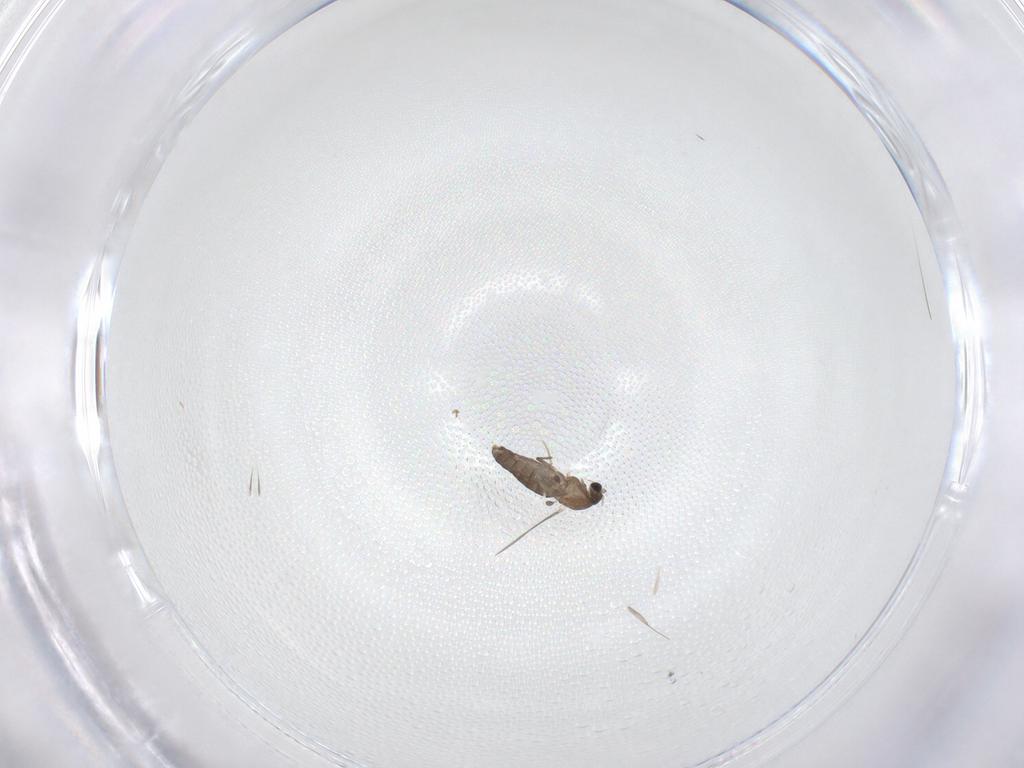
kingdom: Animalia
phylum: Arthropoda
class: Insecta
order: Diptera
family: Chironomidae
